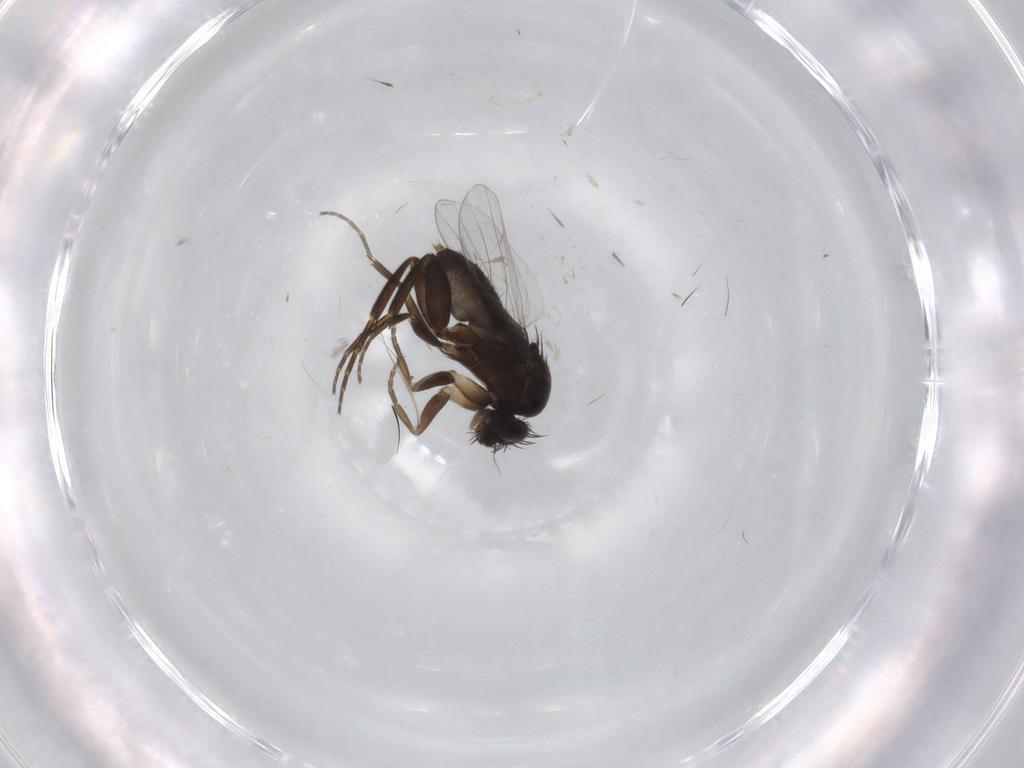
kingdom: Animalia
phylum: Arthropoda
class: Insecta
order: Diptera
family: Phoridae
